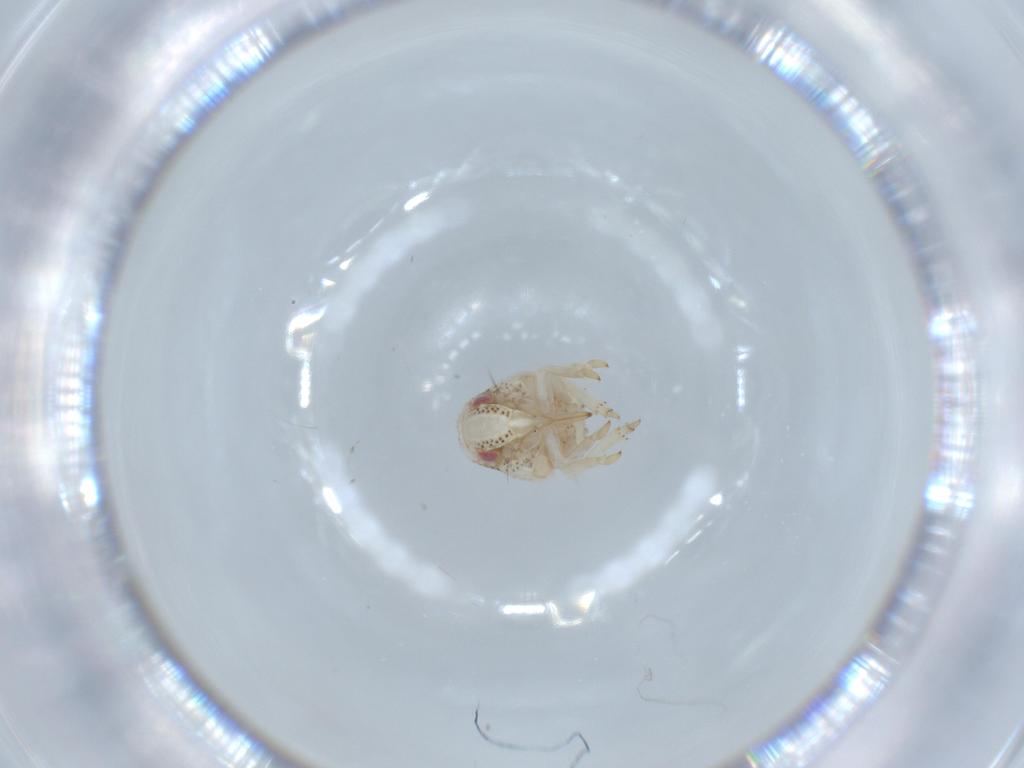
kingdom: Animalia
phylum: Arthropoda
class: Insecta
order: Hemiptera
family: Acanaloniidae
